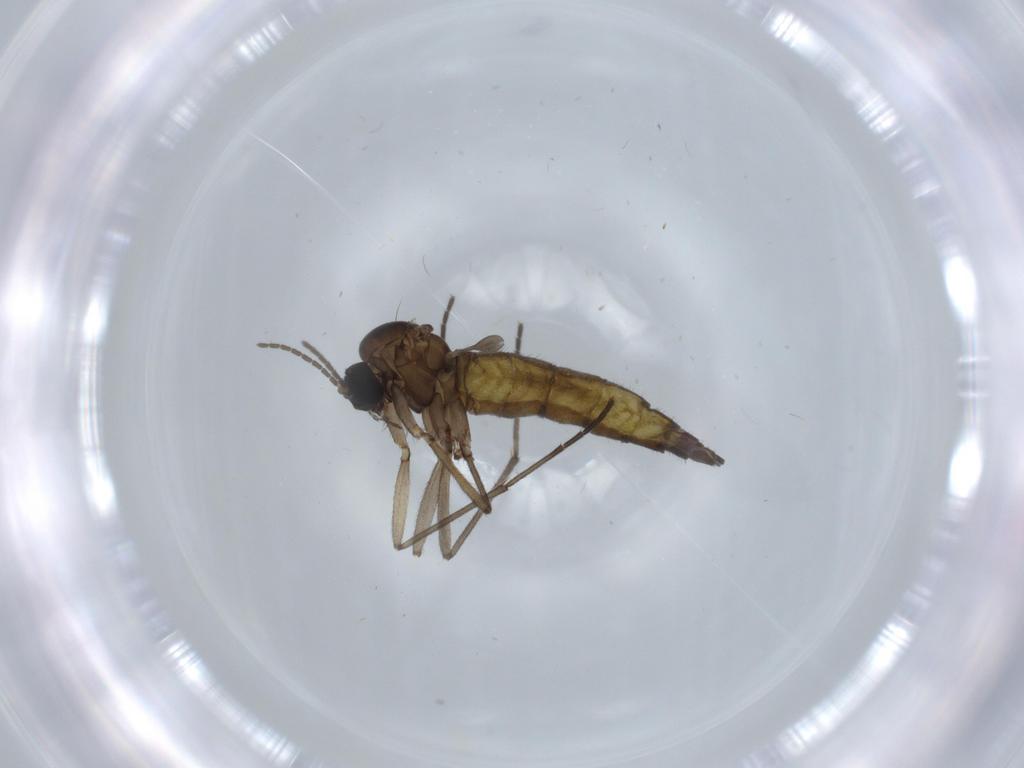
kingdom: Animalia
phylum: Arthropoda
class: Insecta
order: Diptera
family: Sciaridae
